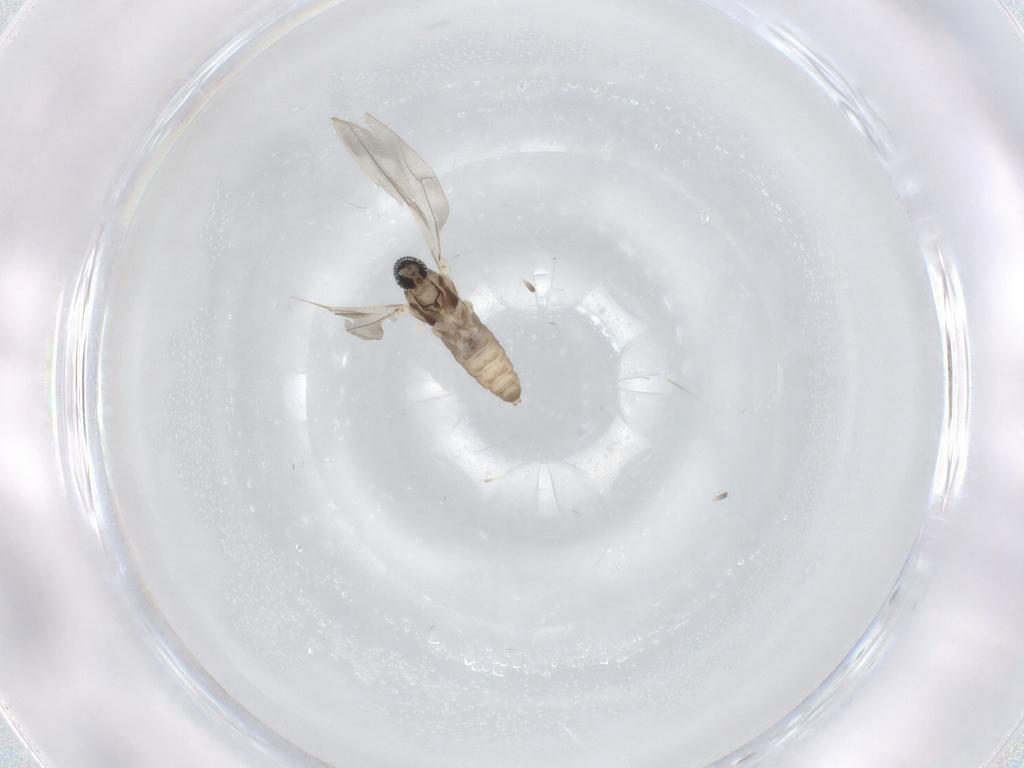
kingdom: Animalia
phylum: Arthropoda
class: Insecta
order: Diptera
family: Cecidomyiidae
